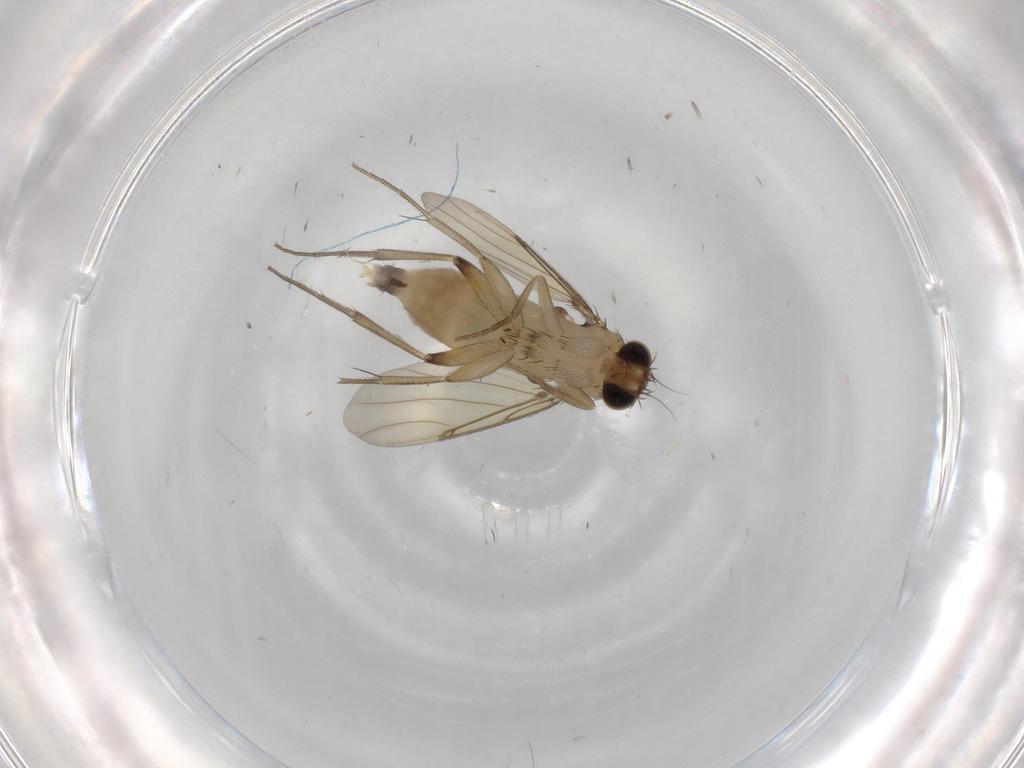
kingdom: Animalia
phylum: Arthropoda
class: Insecta
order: Diptera
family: Phoridae
